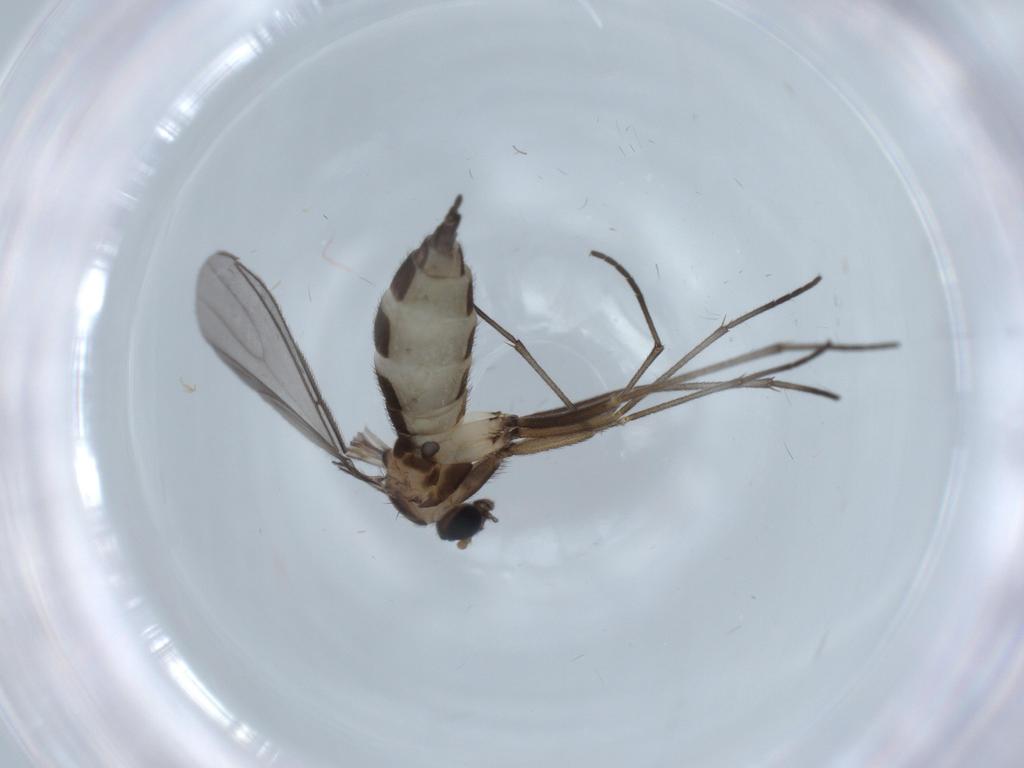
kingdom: Animalia
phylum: Arthropoda
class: Insecta
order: Diptera
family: Sciaridae
